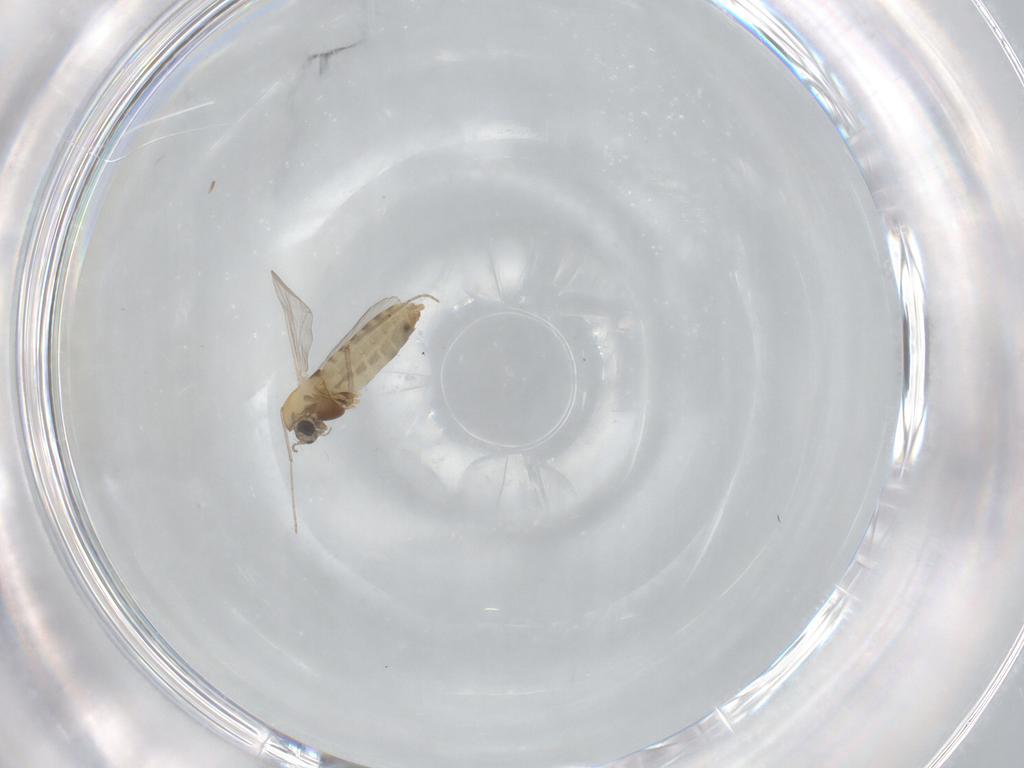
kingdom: Animalia
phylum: Arthropoda
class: Insecta
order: Diptera
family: Chironomidae
